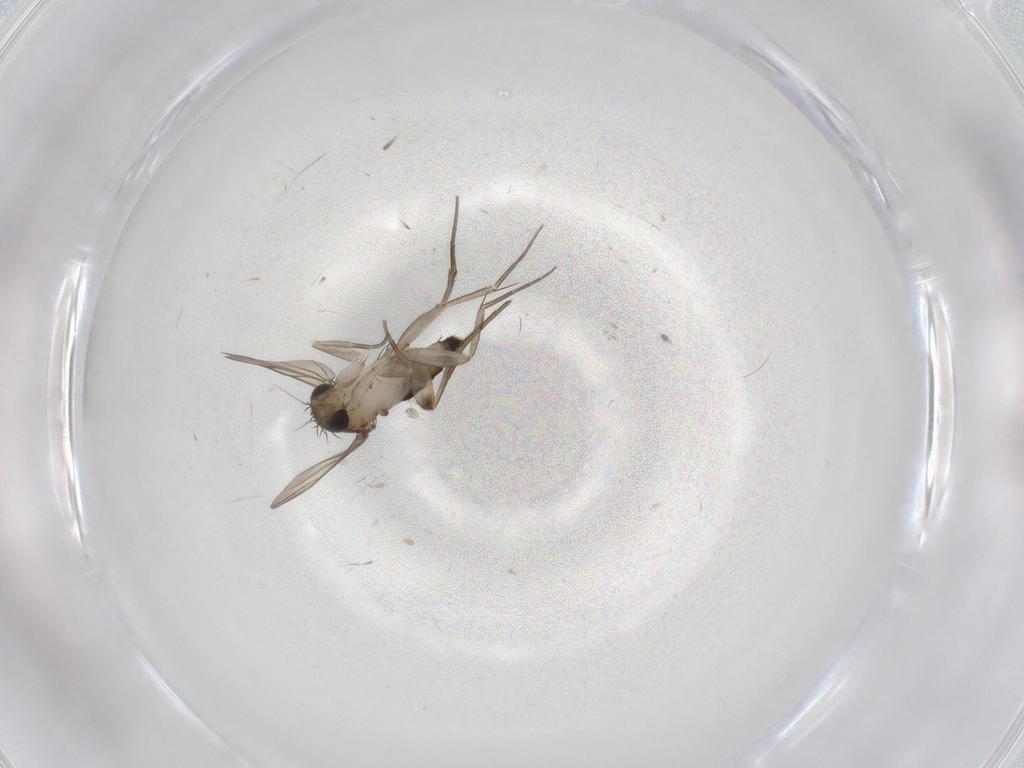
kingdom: Animalia
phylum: Arthropoda
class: Insecta
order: Diptera
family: Phoridae
